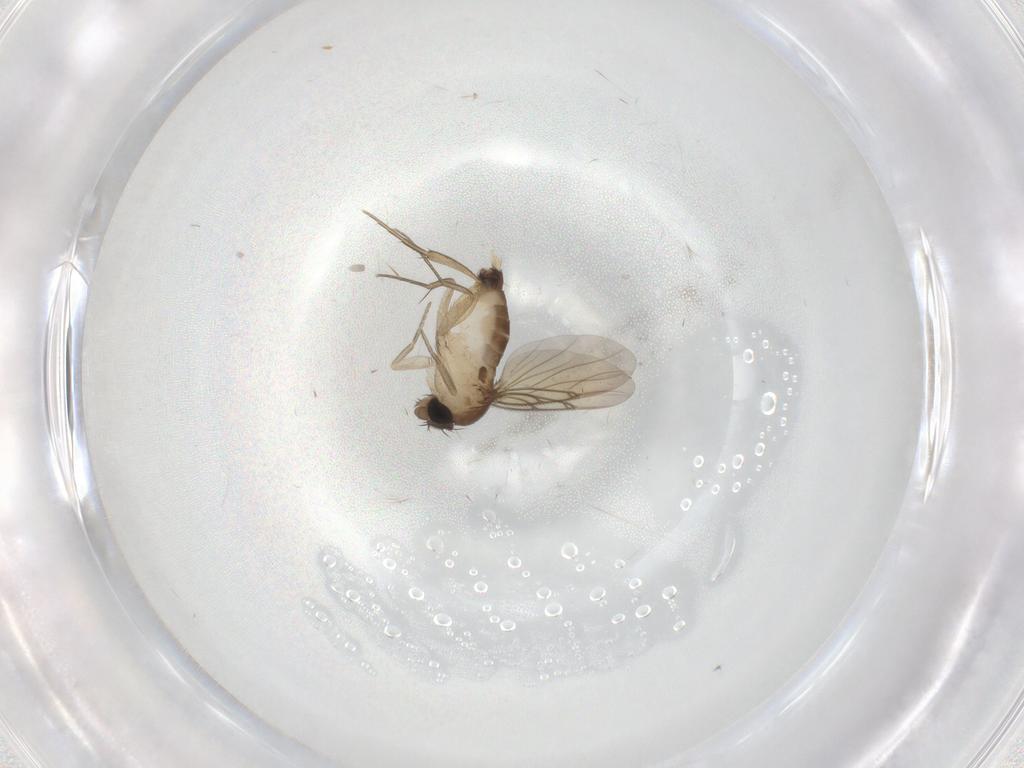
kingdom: Animalia
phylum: Arthropoda
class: Insecta
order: Diptera
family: Mycetophilidae
